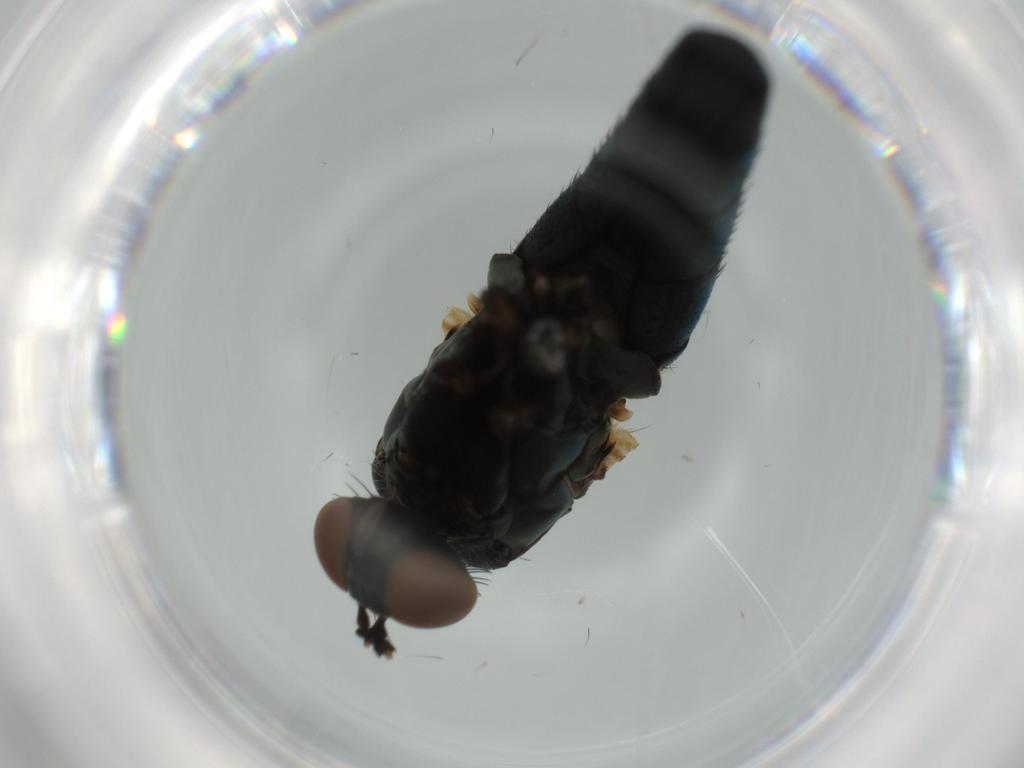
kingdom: Animalia
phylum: Arthropoda
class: Insecta
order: Diptera
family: Dolichopodidae
